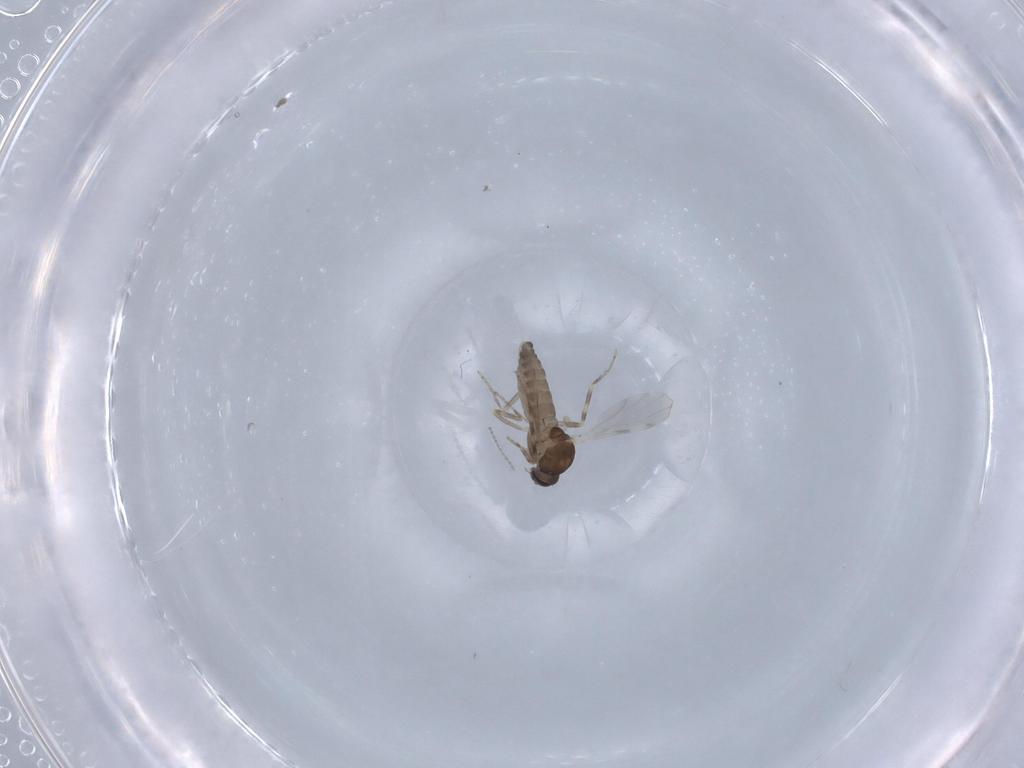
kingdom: Animalia
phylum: Arthropoda
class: Insecta
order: Diptera
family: Ceratopogonidae
